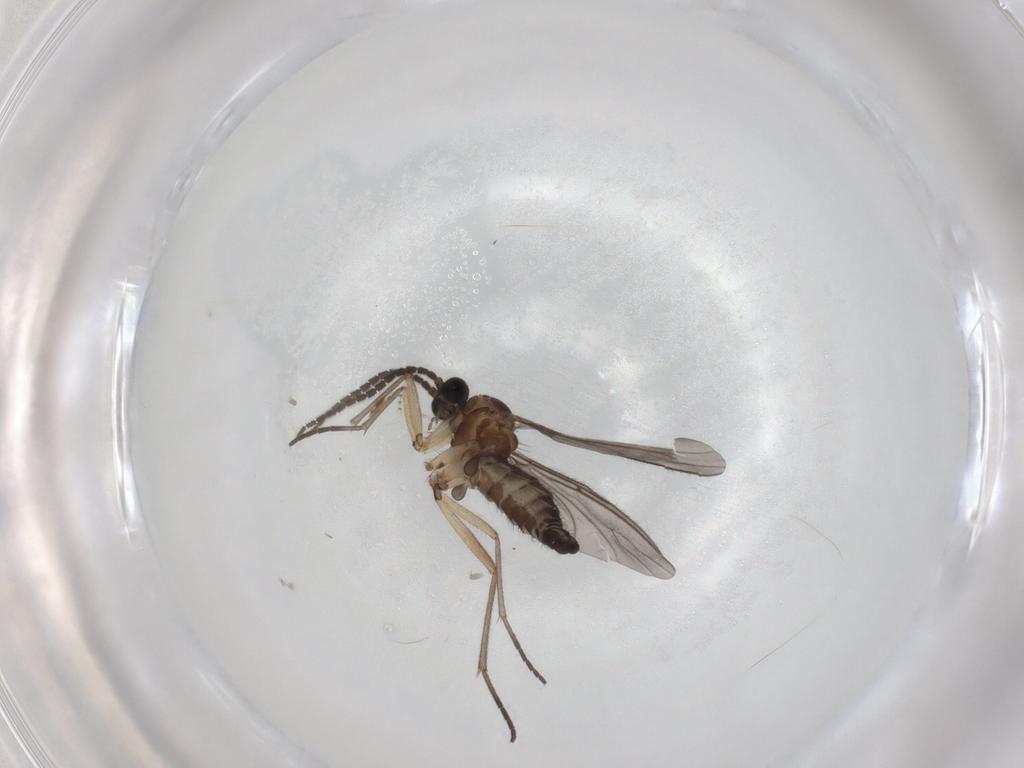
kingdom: Animalia
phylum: Arthropoda
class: Insecta
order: Diptera
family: Sciaridae
